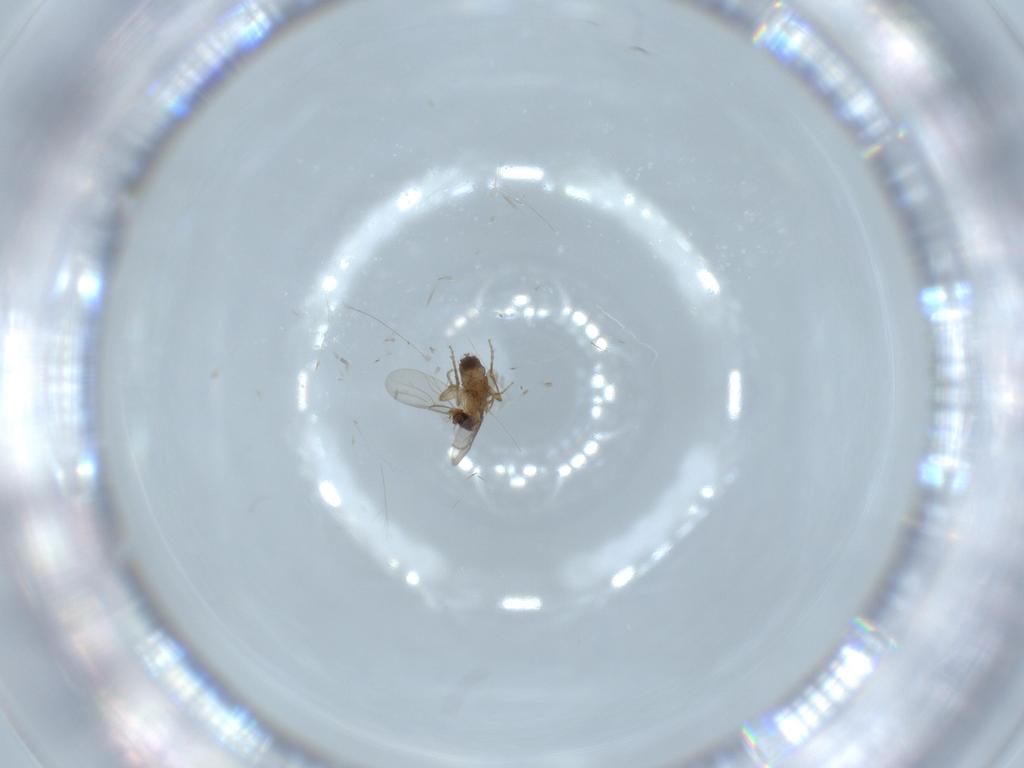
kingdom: Animalia
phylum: Arthropoda
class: Insecta
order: Diptera
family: Phoridae
